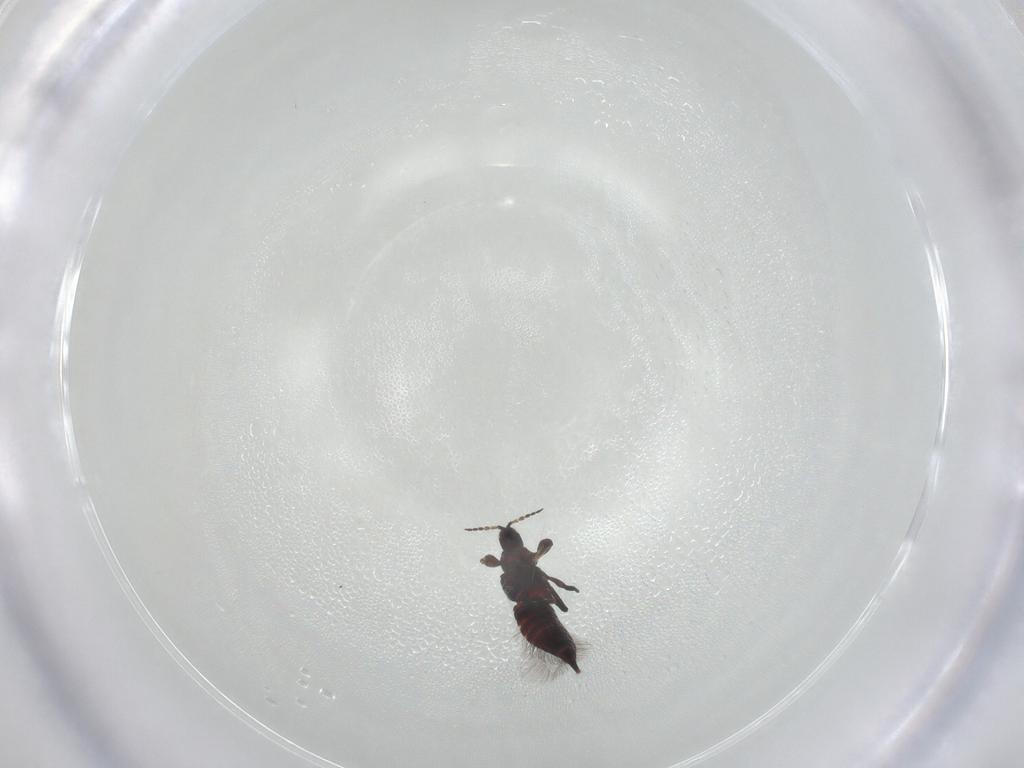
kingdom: Animalia
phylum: Arthropoda
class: Insecta
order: Thysanoptera
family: Phlaeothripidae
